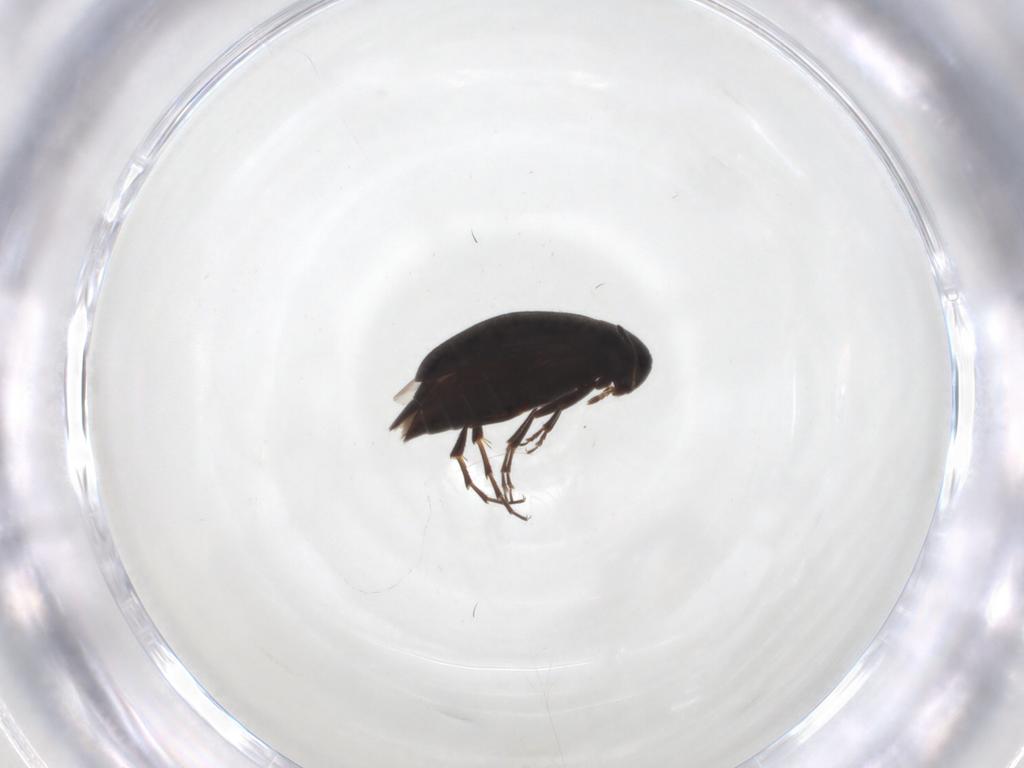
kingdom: Animalia
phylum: Arthropoda
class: Insecta
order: Coleoptera
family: Scraptiidae
